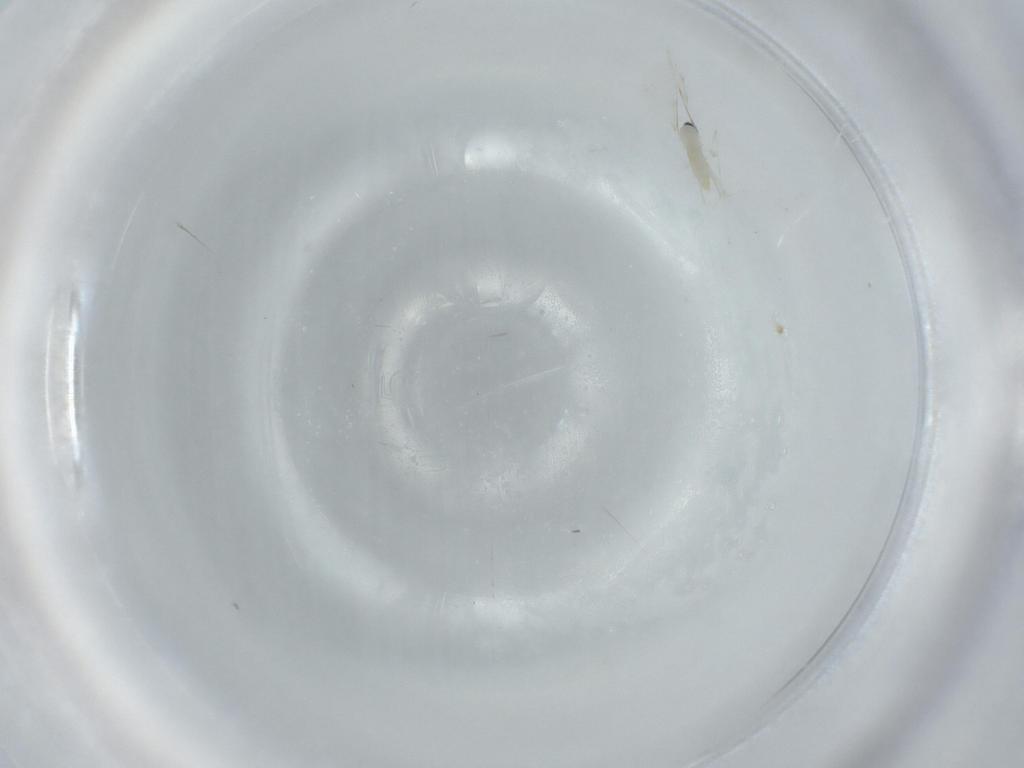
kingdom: Animalia
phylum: Arthropoda
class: Insecta
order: Diptera
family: Cecidomyiidae
